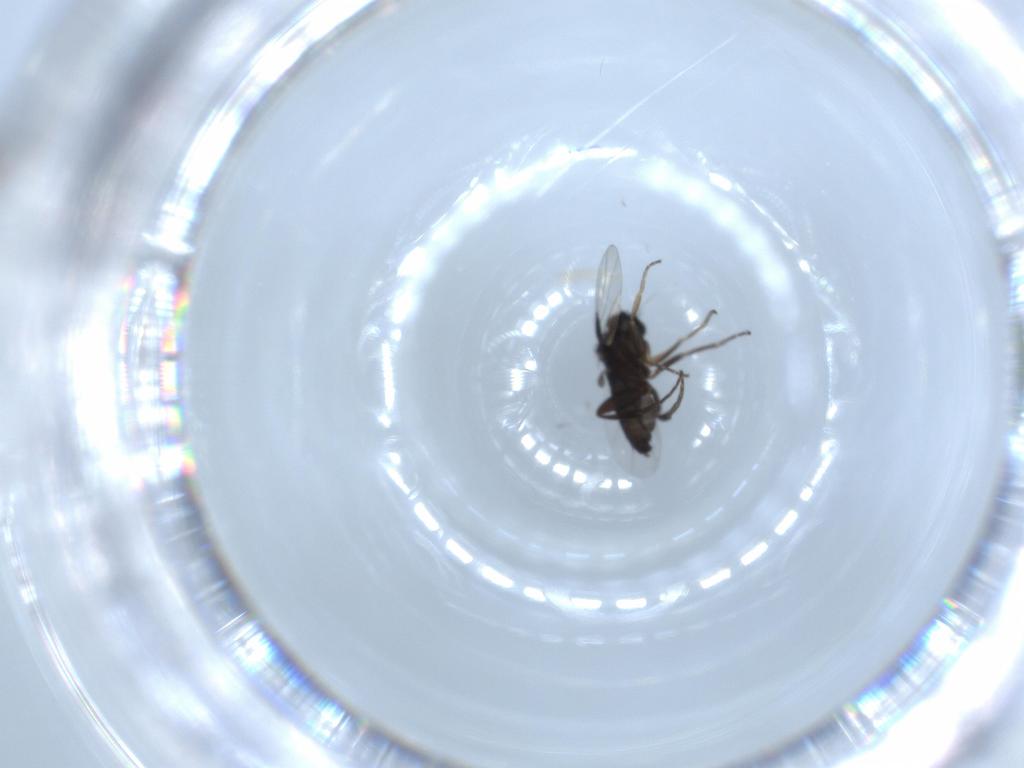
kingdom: Animalia
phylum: Arthropoda
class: Insecta
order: Diptera
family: Phoridae
